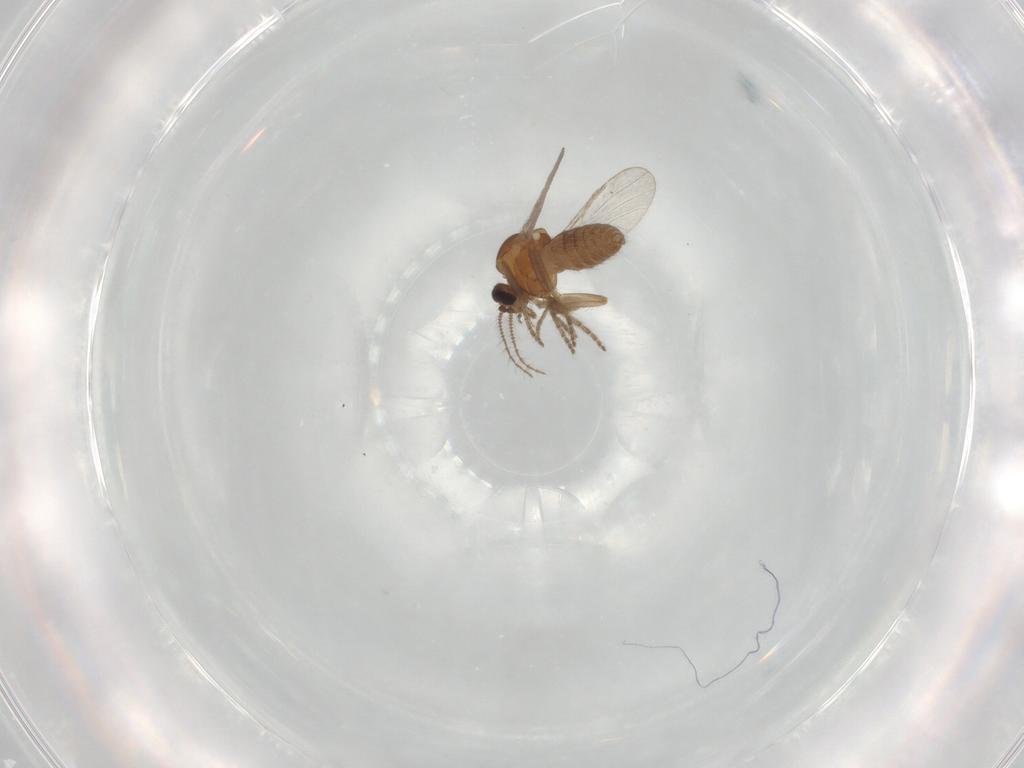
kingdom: Animalia
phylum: Arthropoda
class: Insecta
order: Diptera
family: Ceratopogonidae
